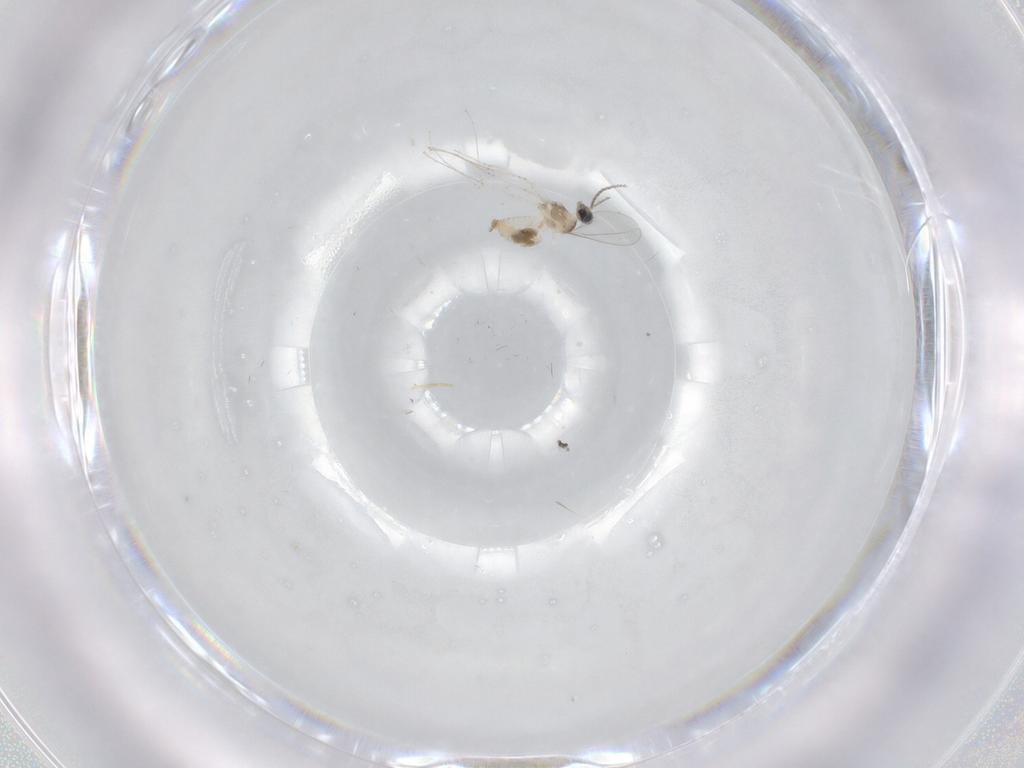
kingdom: Animalia
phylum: Arthropoda
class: Insecta
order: Diptera
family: Cecidomyiidae
